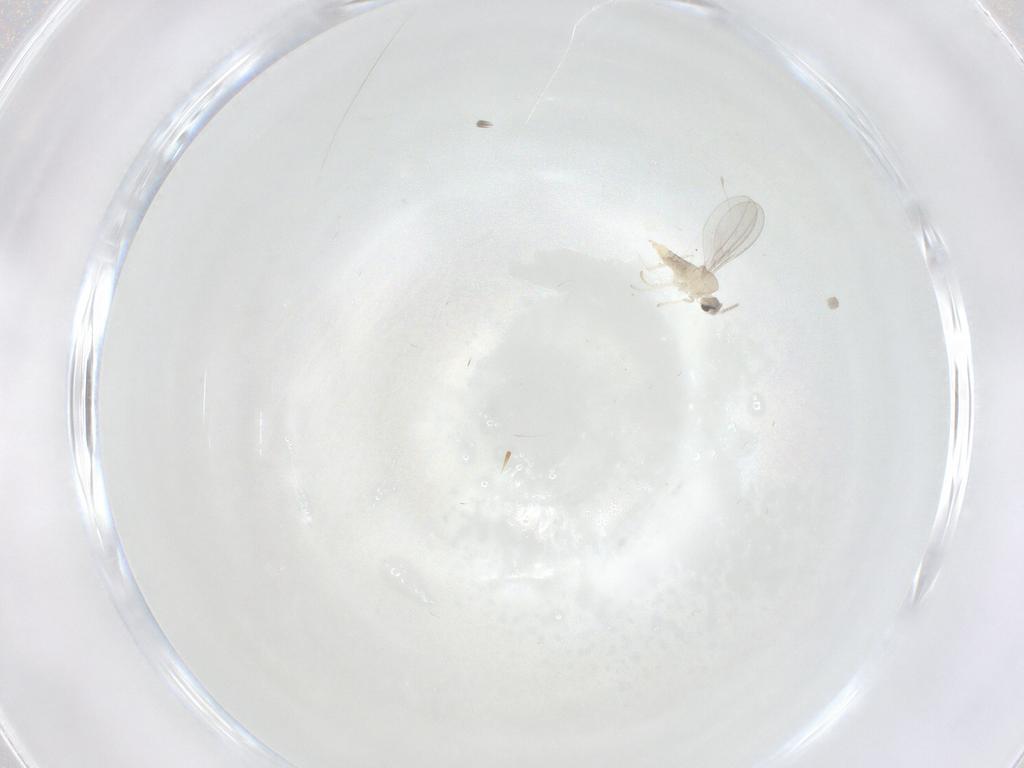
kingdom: Animalia
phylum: Arthropoda
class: Insecta
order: Diptera
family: Cecidomyiidae
